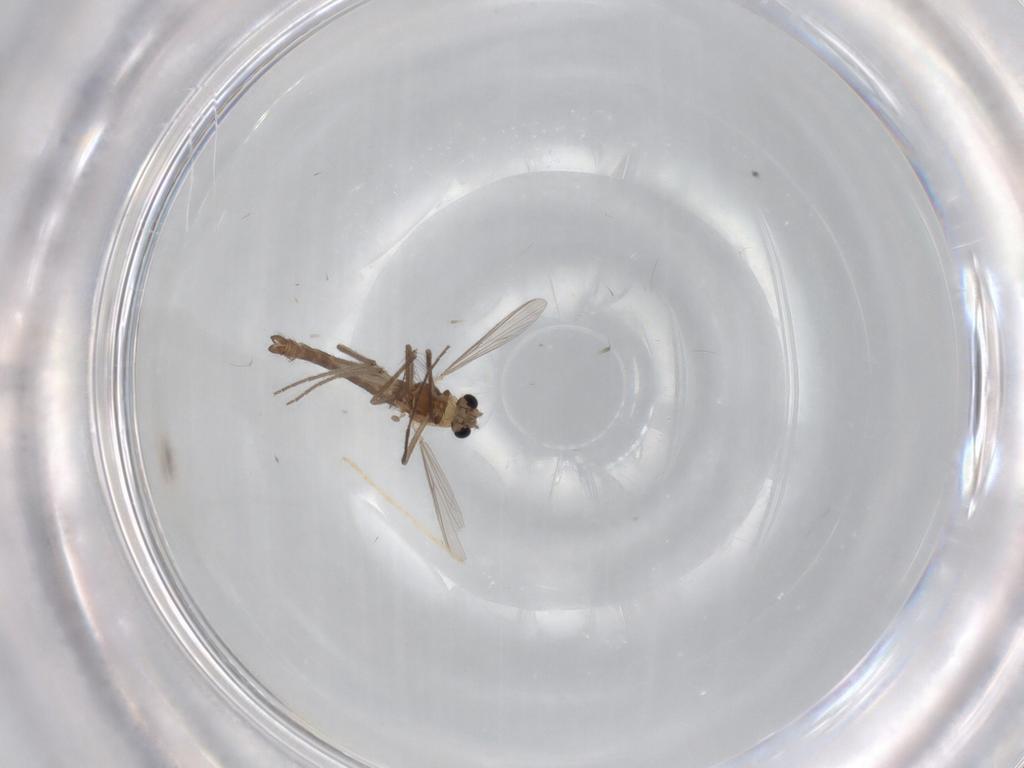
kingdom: Animalia
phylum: Arthropoda
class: Insecta
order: Diptera
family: Chironomidae
